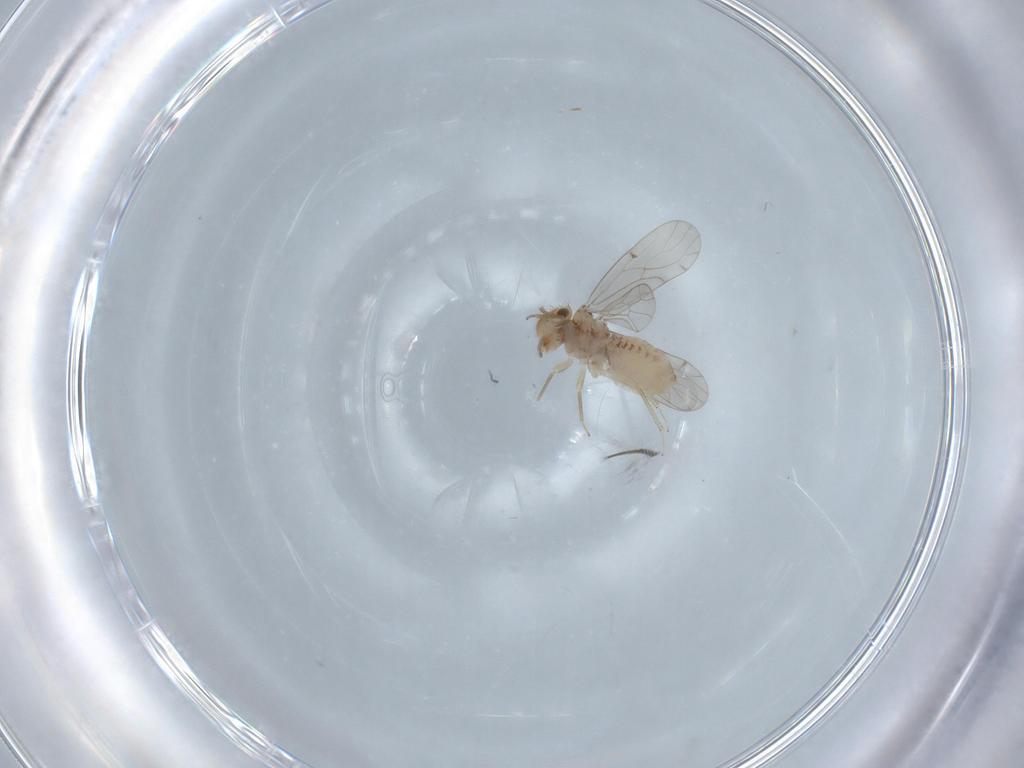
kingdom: Animalia
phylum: Arthropoda
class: Insecta
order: Psocodea
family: Ectopsocidae
